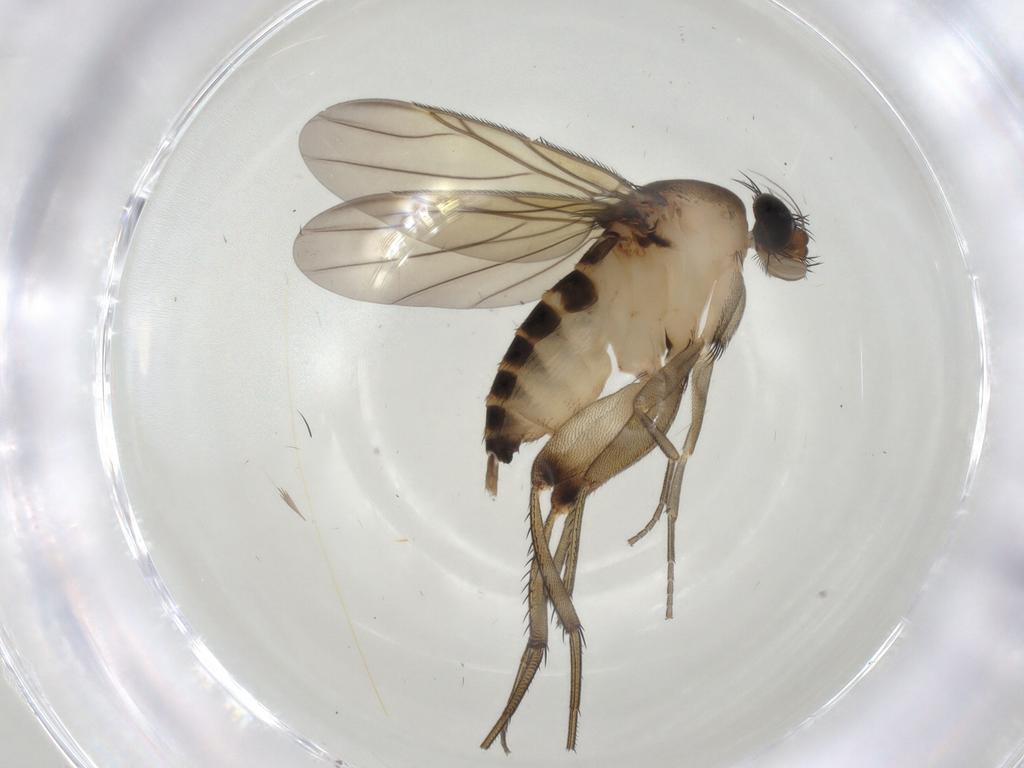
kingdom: Animalia
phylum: Arthropoda
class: Insecta
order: Diptera
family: Phoridae
